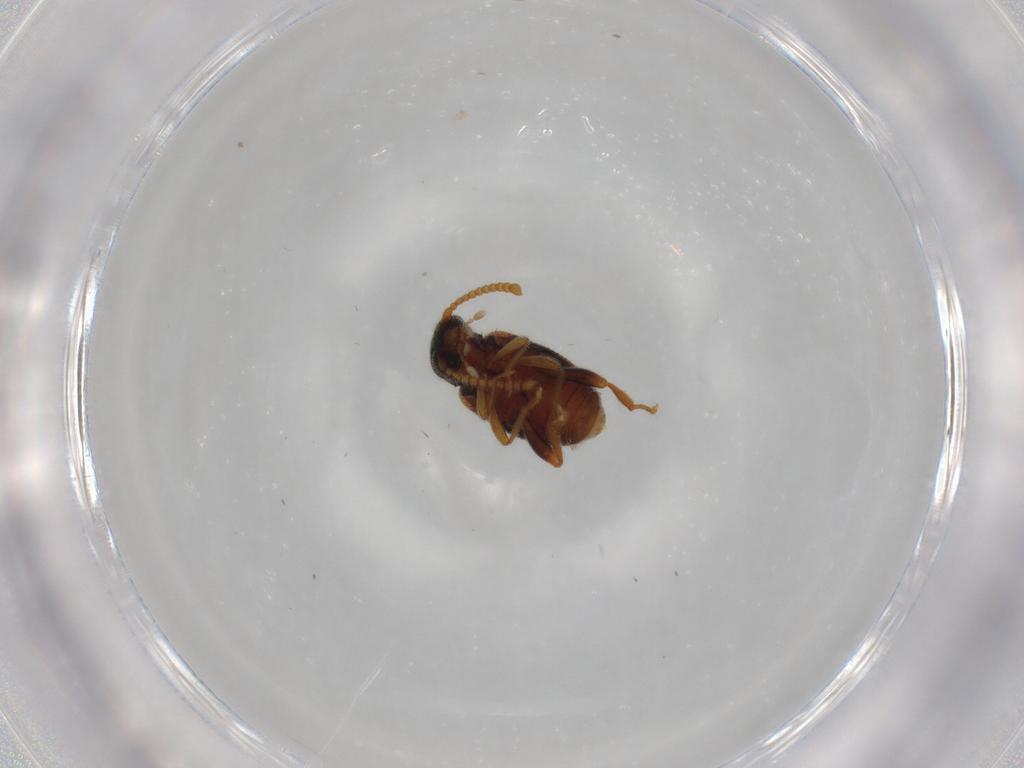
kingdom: Animalia
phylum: Arthropoda
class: Insecta
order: Coleoptera
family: Aderidae
